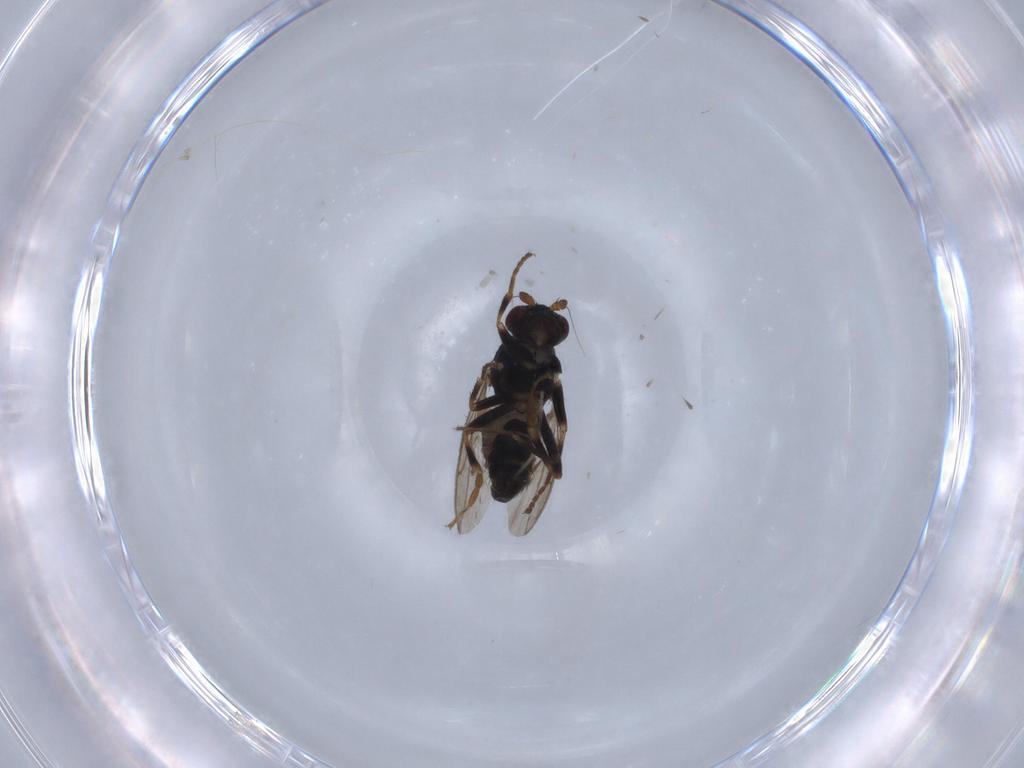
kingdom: Animalia
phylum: Arthropoda
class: Insecta
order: Diptera
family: Sphaeroceridae
